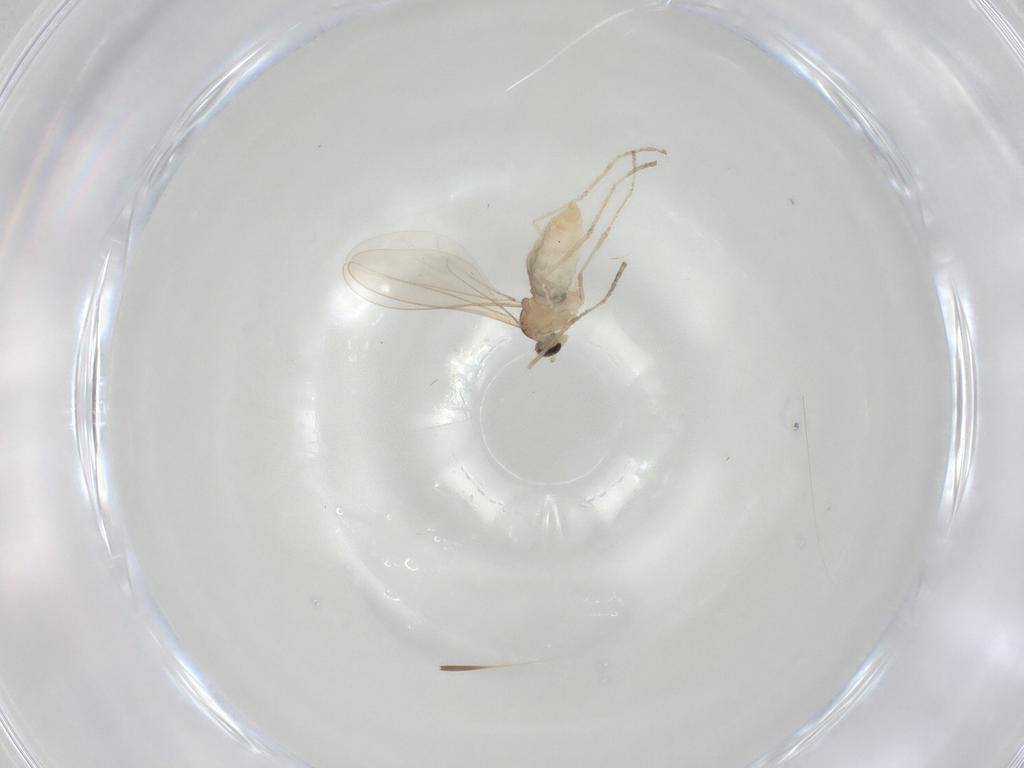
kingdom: Animalia
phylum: Arthropoda
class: Insecta
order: Diptera
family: Cecidomyiidae
